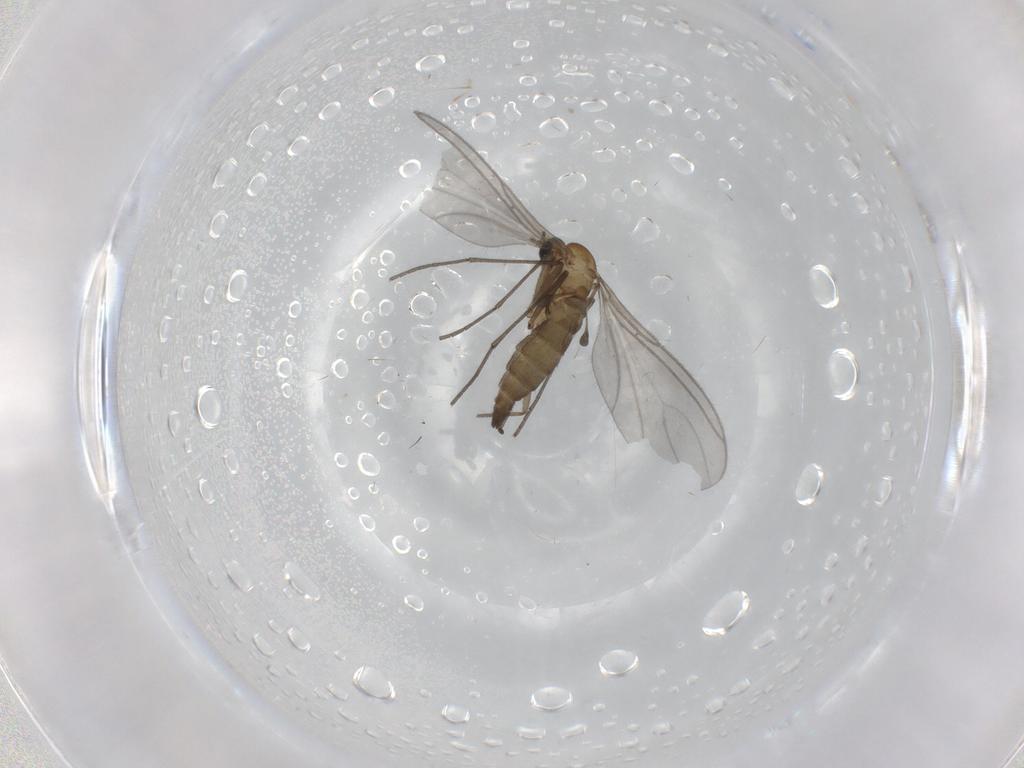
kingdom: Animalia
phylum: Arthropoda
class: Insecta
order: Diptera
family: Sciaridae
